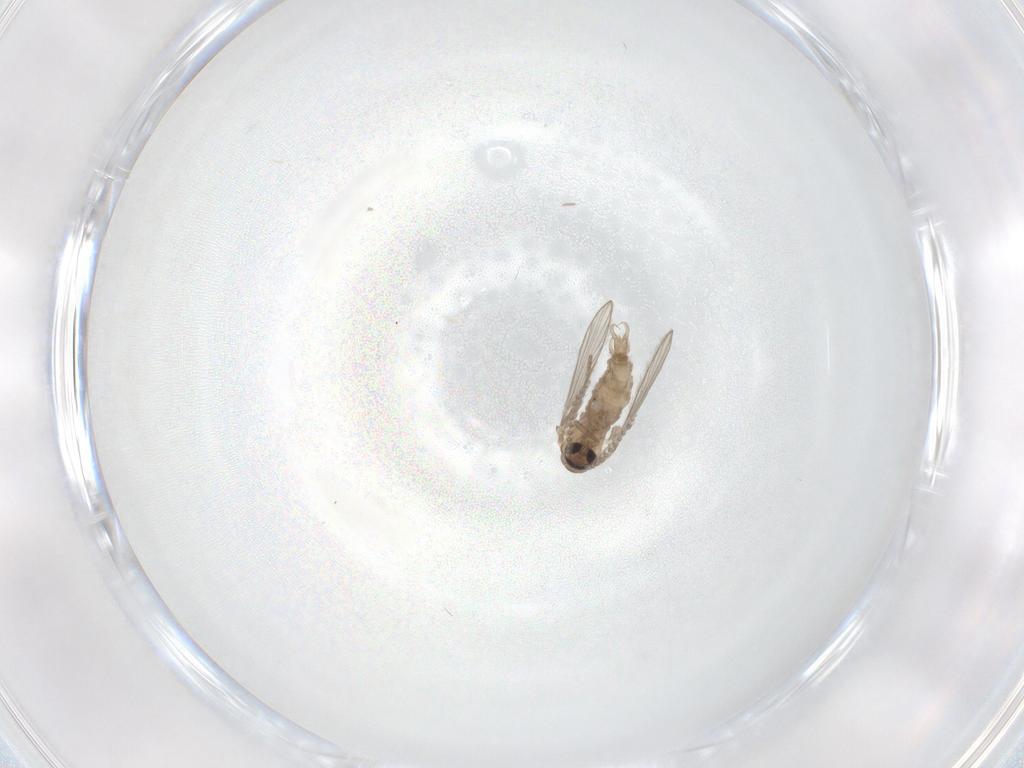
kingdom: Animalia
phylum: Arthropoda
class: Insecta
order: Diptera
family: Psychodidae
